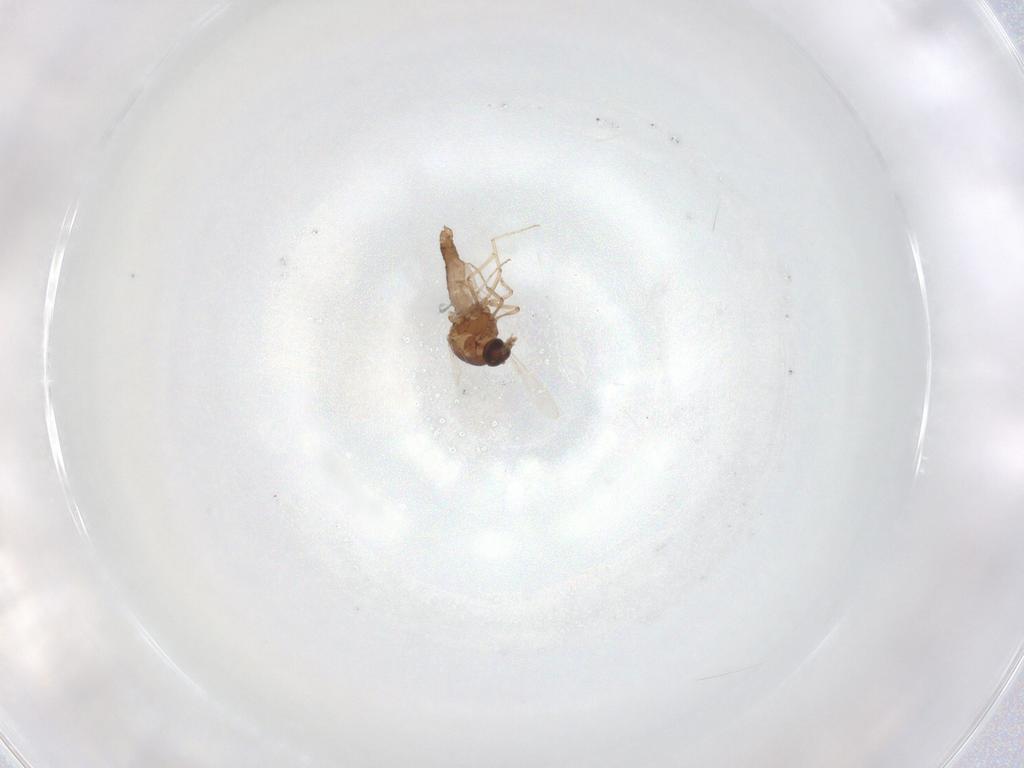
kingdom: Animalia
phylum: Arthropoda
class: Insecta
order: Diptera
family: Ceratopogonidae
